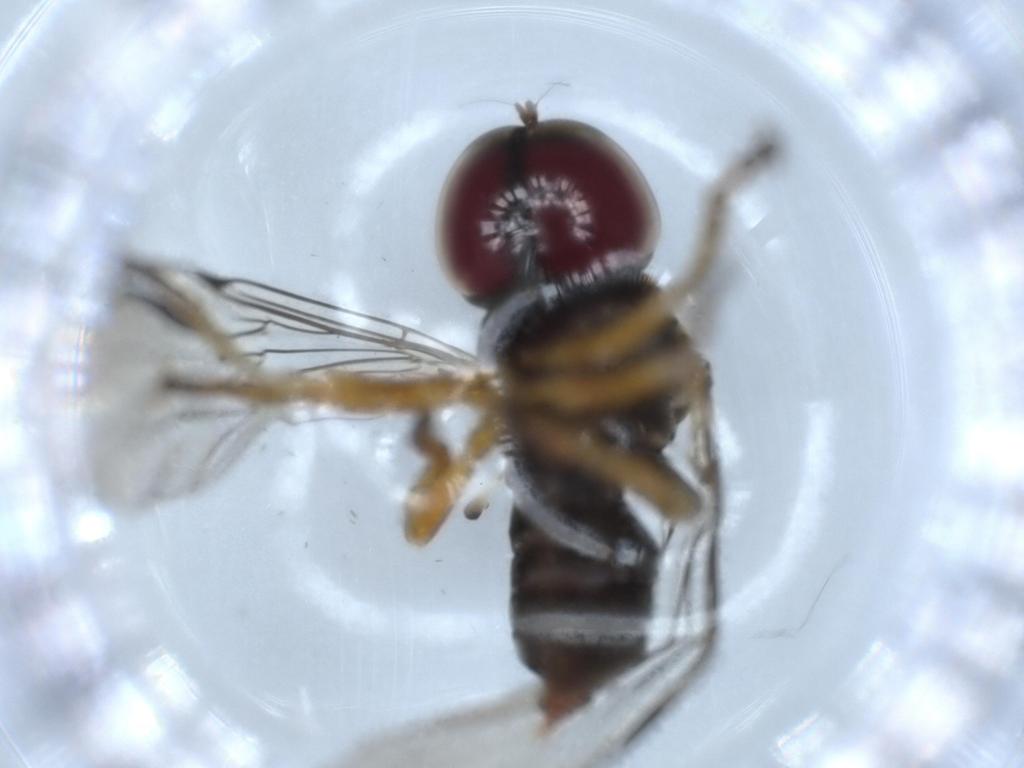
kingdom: Animalia
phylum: Arthropoda
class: Insecta
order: Diptera
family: Pipunculidae
